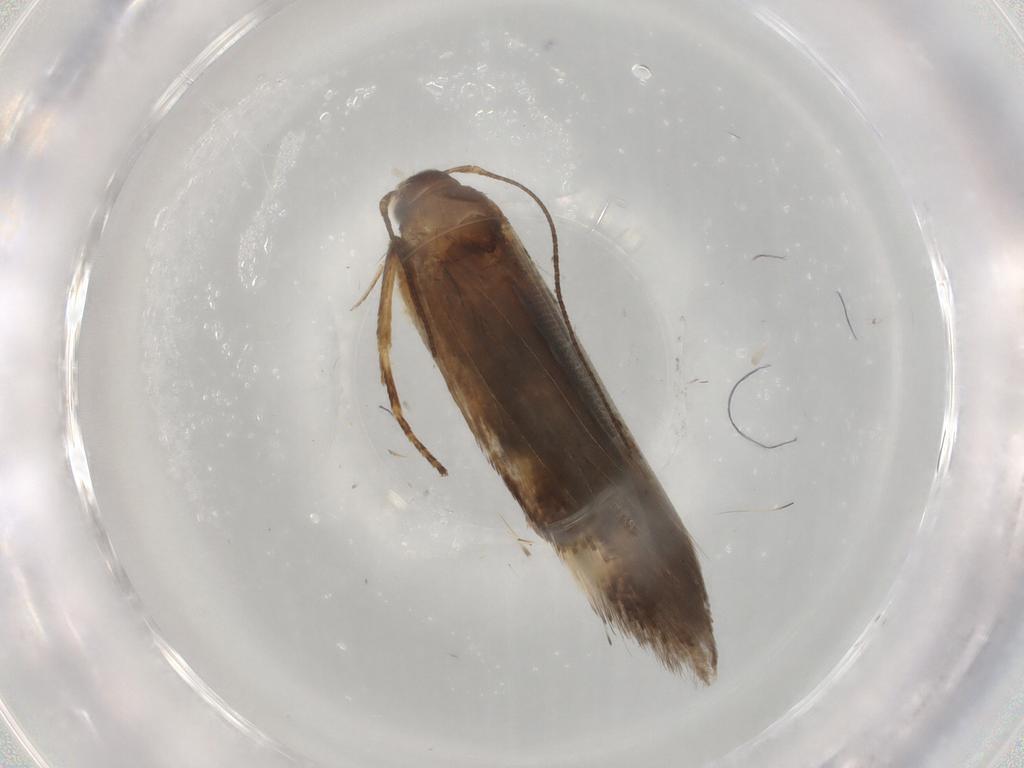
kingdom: Animalia
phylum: Arthropoda
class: Insecta
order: Lepidoptera
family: Gelechiidae
